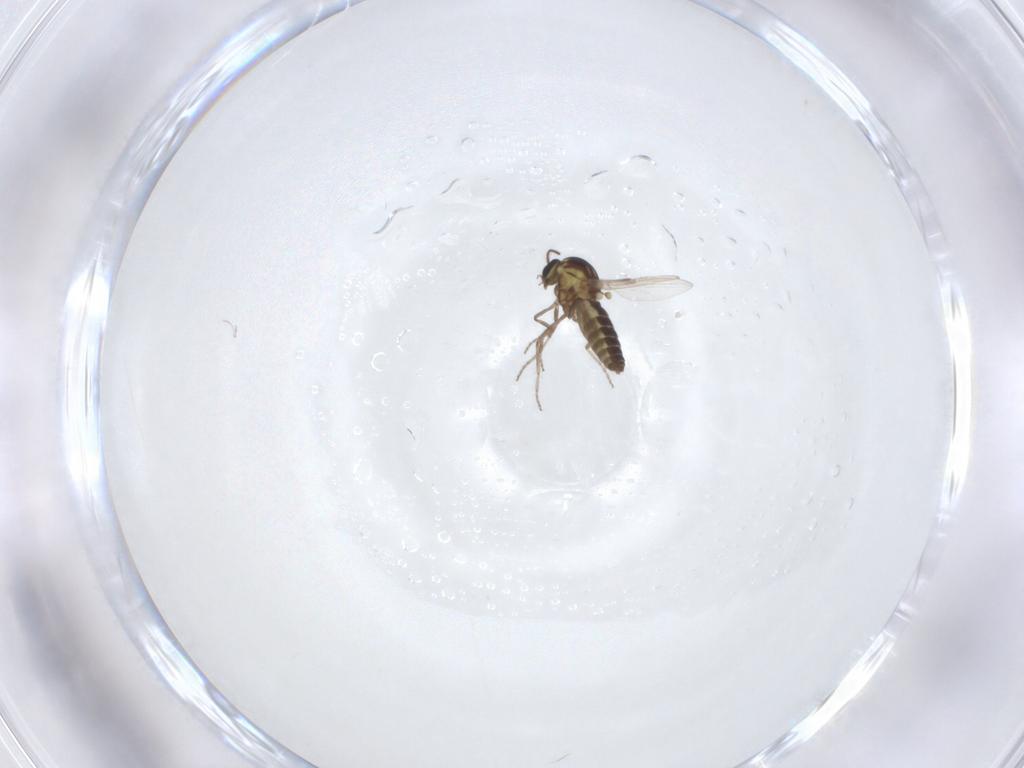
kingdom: Animalia
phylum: Arthropoda
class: Insecta
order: Diptera
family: Ceratopogonidae
